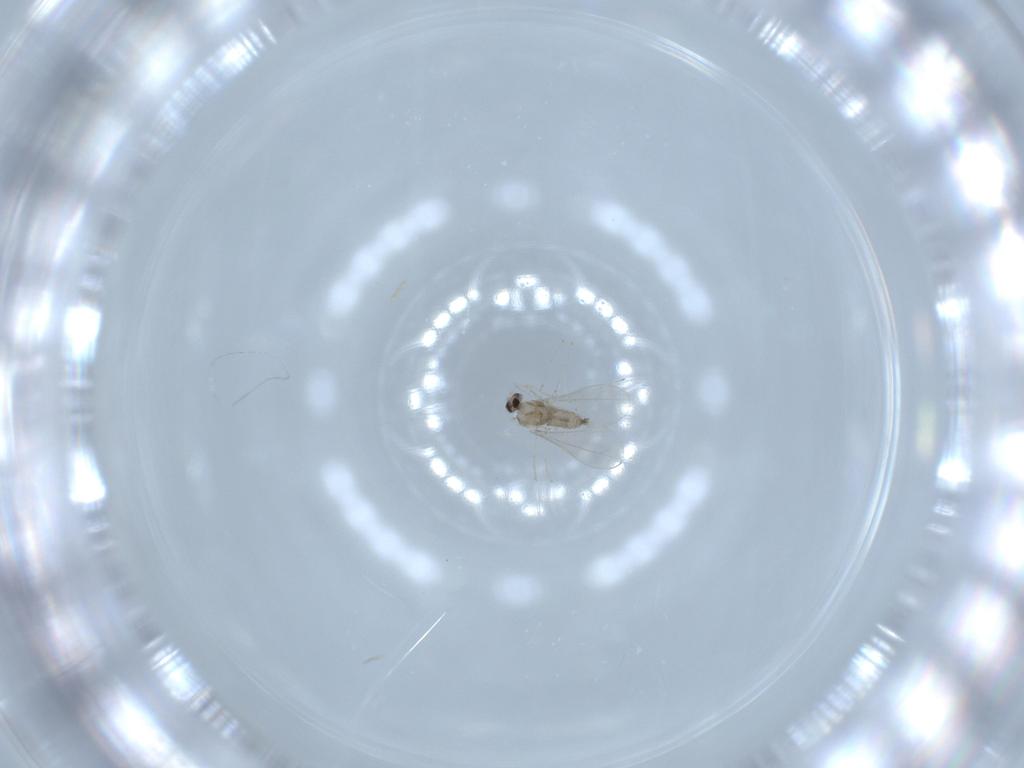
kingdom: Animalia
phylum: Arthropoda
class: Insecta
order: Diptera
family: Cecidomyiidae
